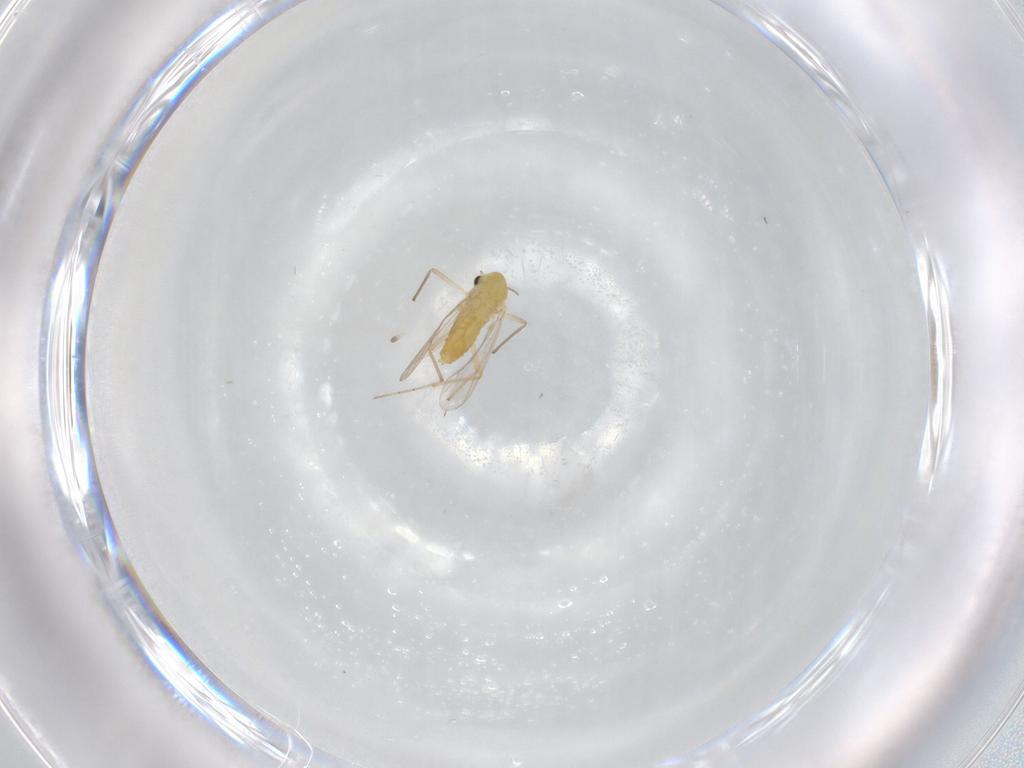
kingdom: Animalia
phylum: Arthropoda
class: Insecta
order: Diptera
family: Chironomidae
